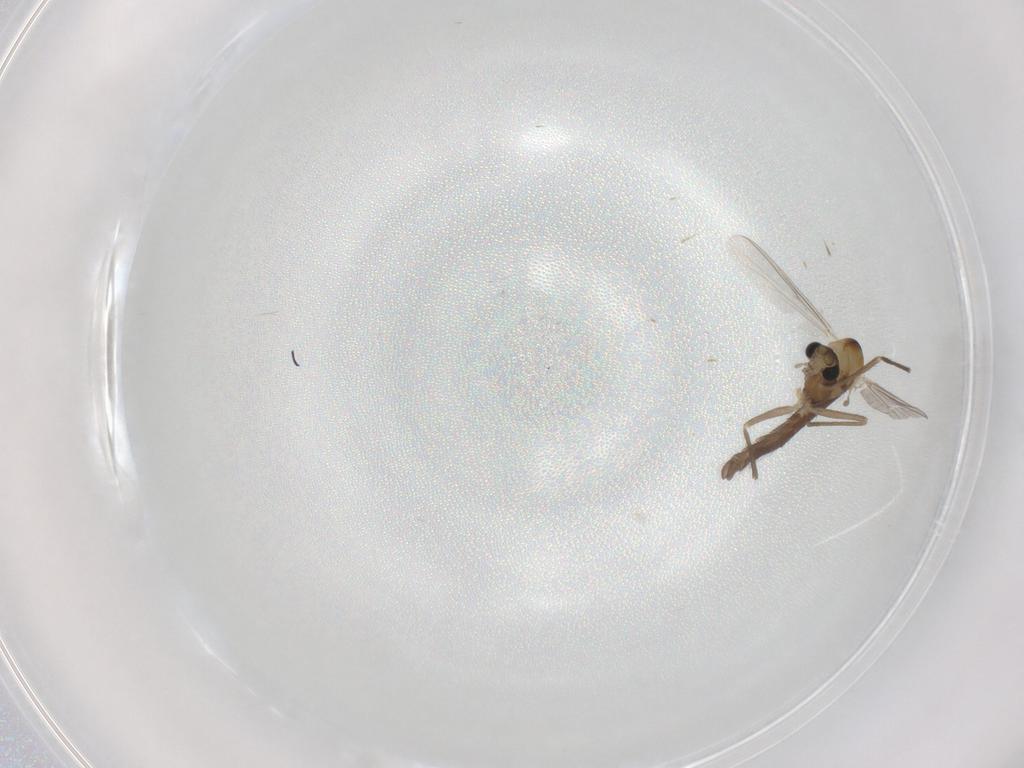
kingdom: Animalia
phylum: Arthropoda
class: Insecta
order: Diptera
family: Chironomidae
